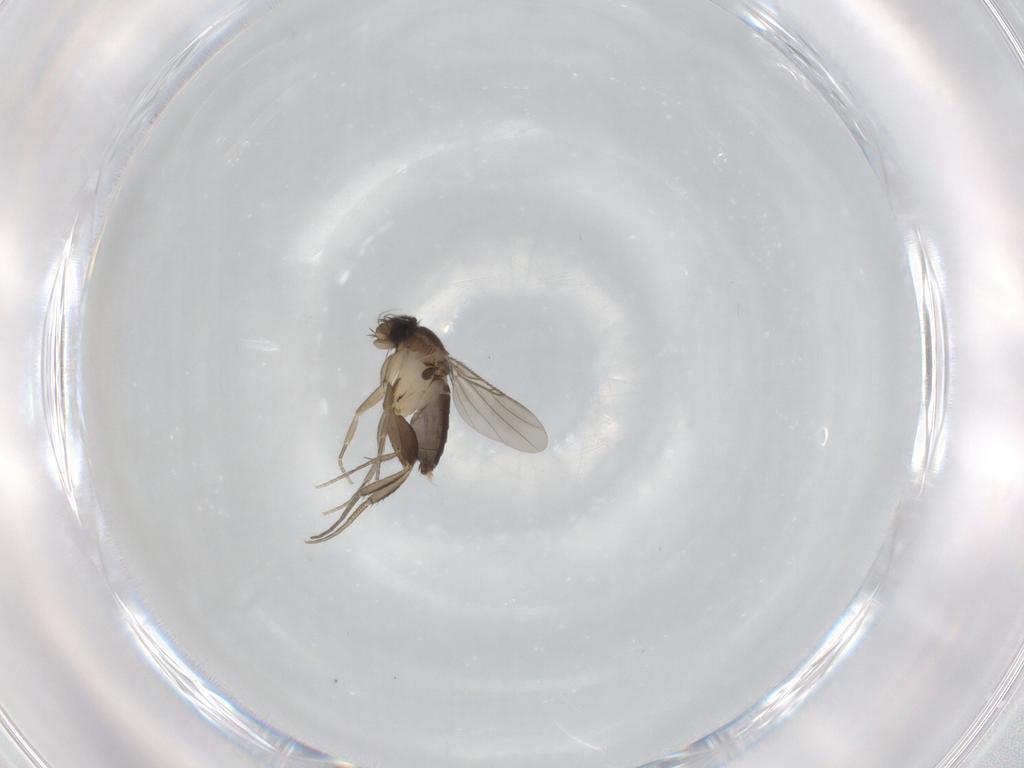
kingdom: Animalia
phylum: Arthropoda
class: Insecta
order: Diptera
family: Phoridae
